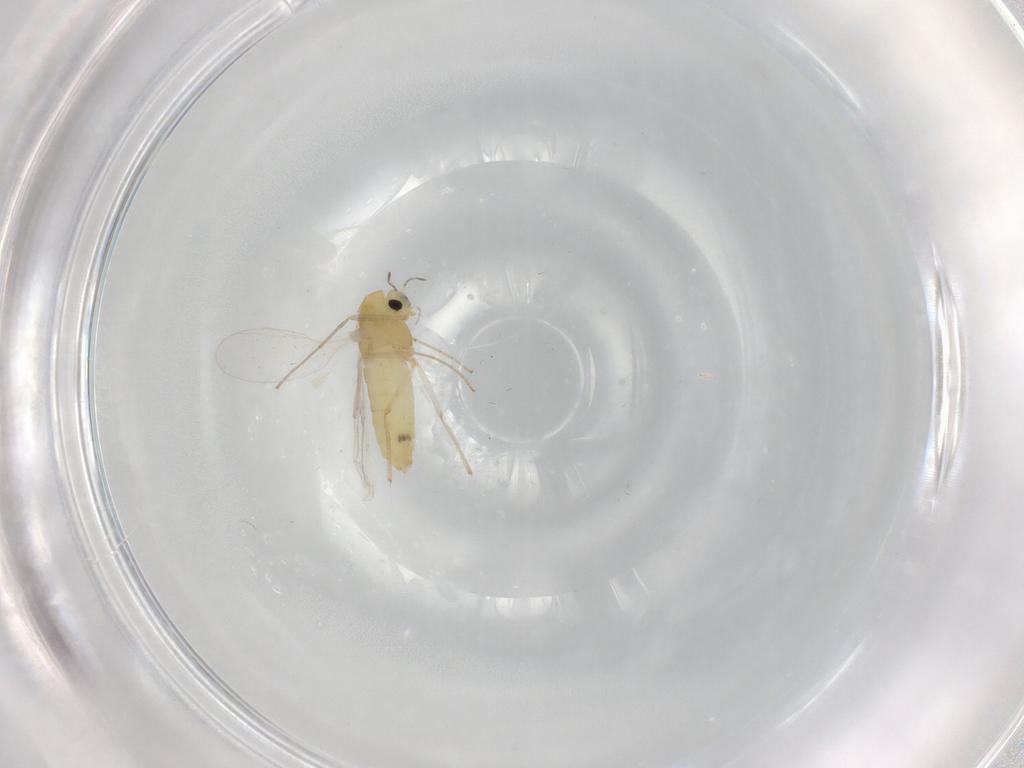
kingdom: Animalia
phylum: Arthropoda
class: Insecta
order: Diptera
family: Chironomidae
